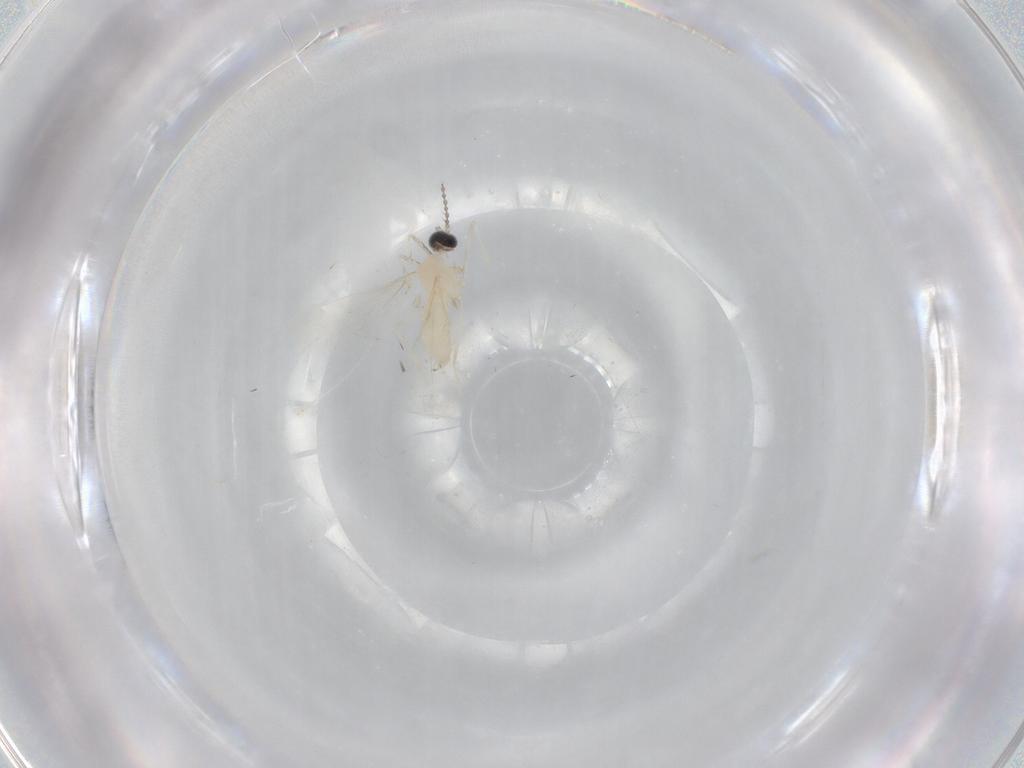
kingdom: Animalia
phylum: Arthropoda
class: Insecta
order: Diptera
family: Cecidomyiidae
